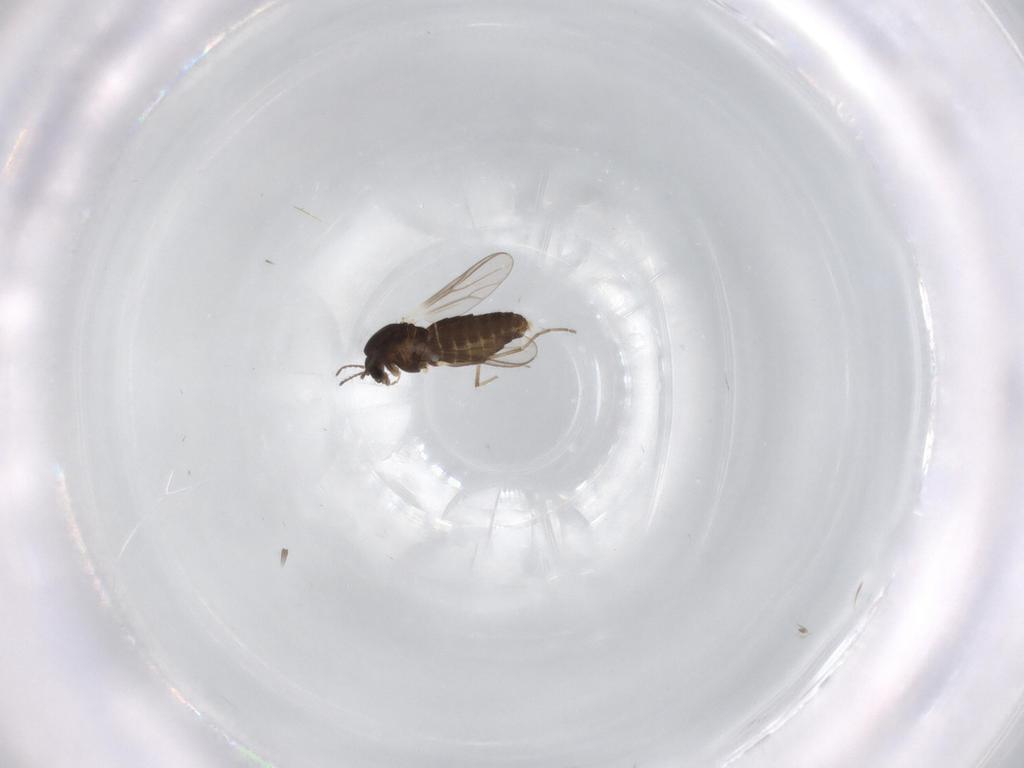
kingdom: Animalia
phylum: Arthropoda
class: Insecta
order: Diptera
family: Chironomidae
